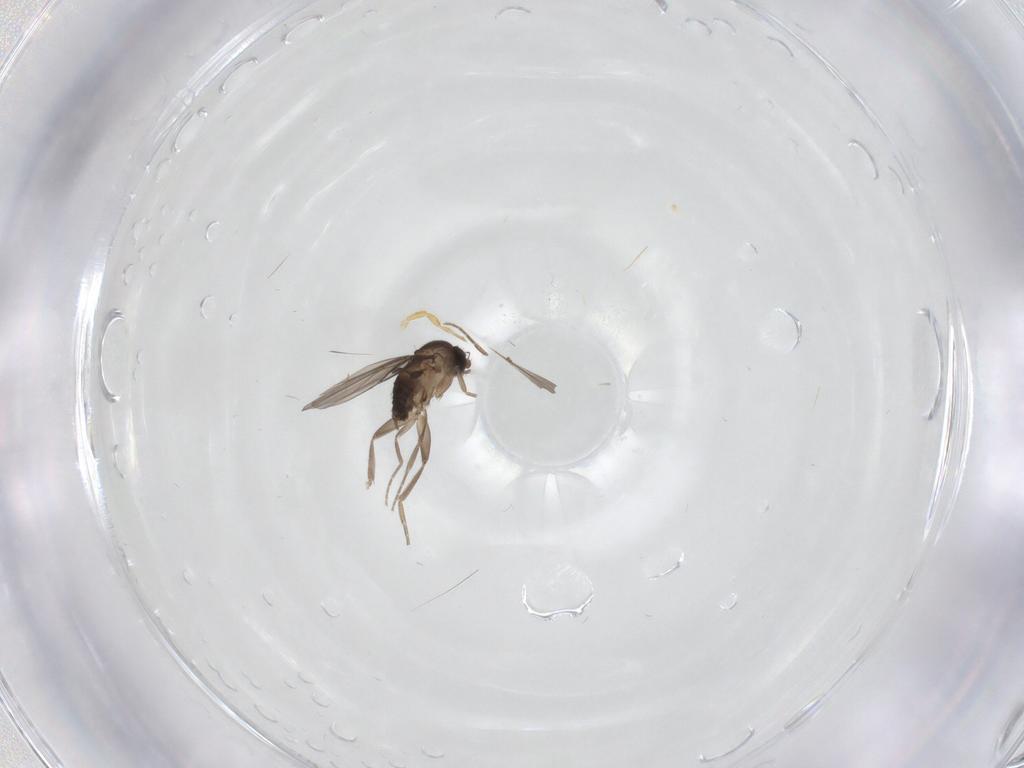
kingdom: Animalia
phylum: Arthropoda
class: Insecta
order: Diptera
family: Phoridae
